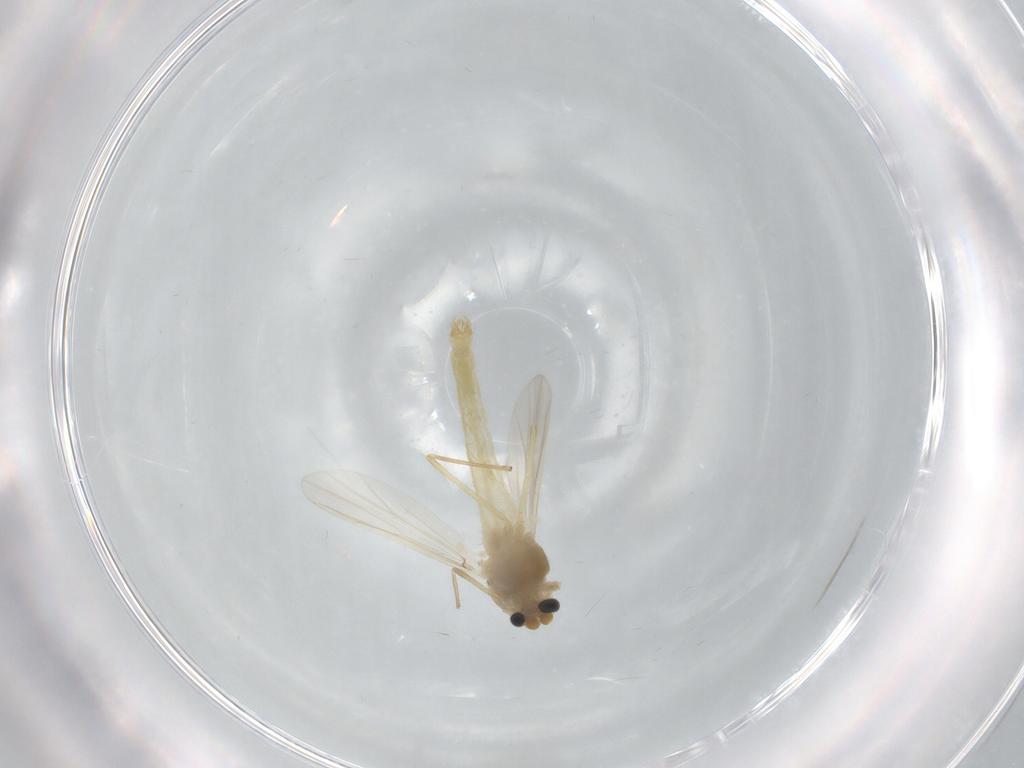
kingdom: Animalia
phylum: Arthropoda
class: Insecta
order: Diptera
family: Chironomidae
